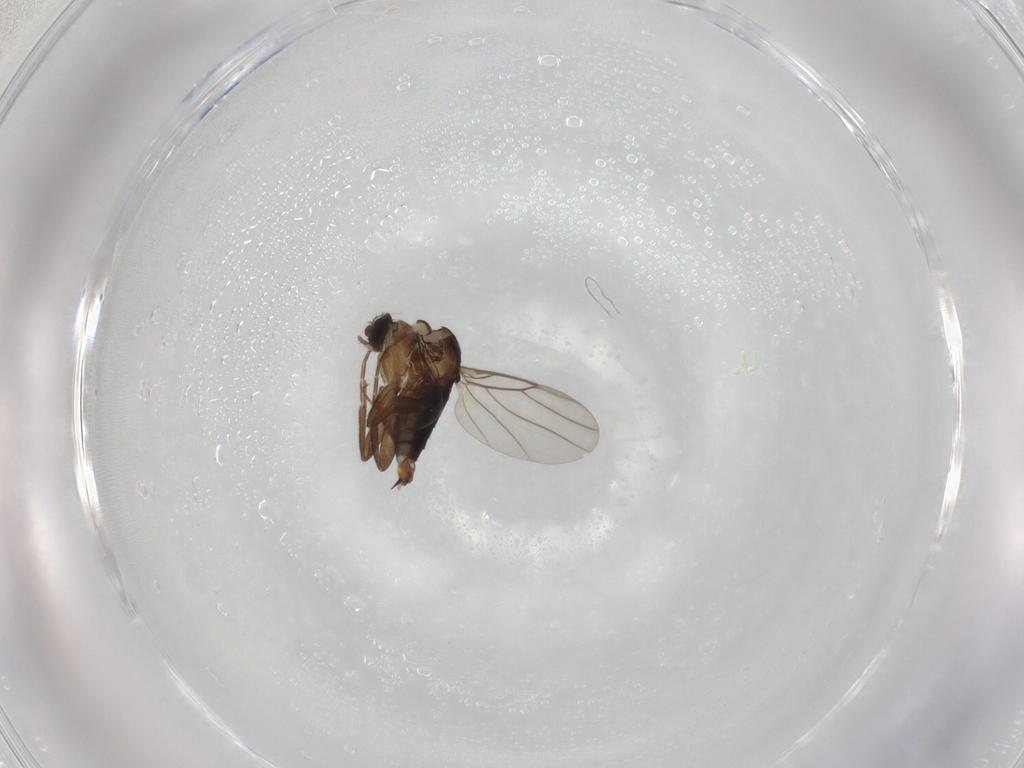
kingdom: Animalia
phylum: Arthropoda
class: Insecta
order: Diptera
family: Phoridae
